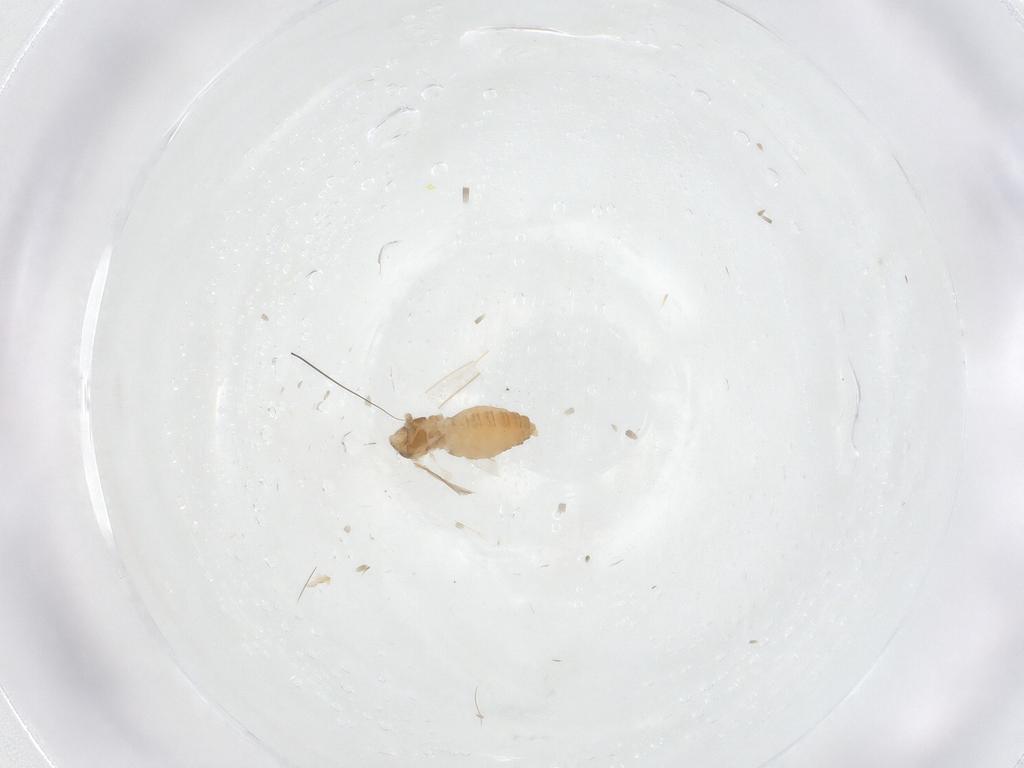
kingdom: Animalia
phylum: Arthropoda
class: Insecta
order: Diptera
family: Cecidomyiidae
